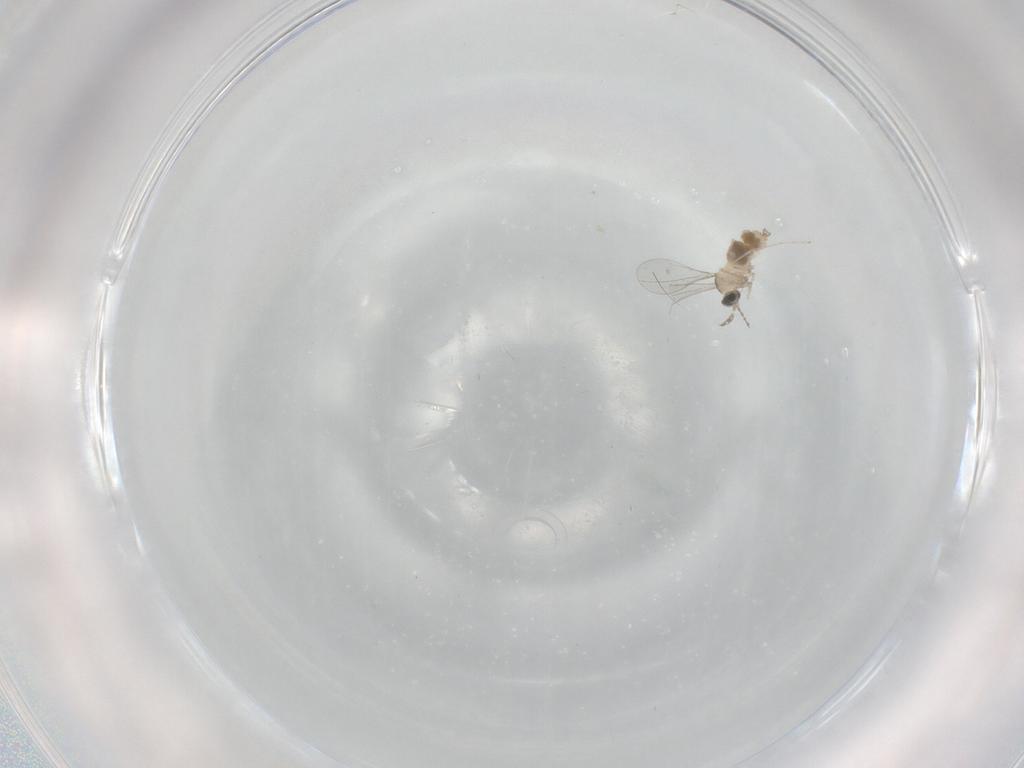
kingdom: Animalia
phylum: Arthropoda
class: Insecta
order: Diptera
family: Cecidomyiidae
